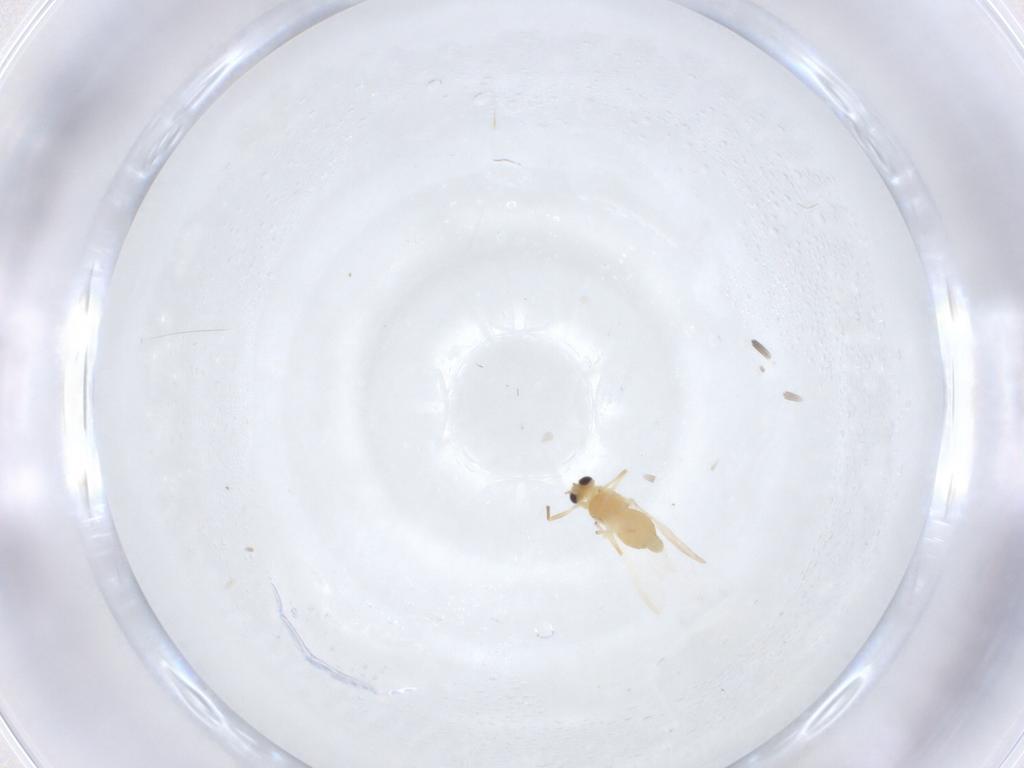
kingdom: Animalia
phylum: Arthropoda
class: Insecta
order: Diptera
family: Chironomidae
